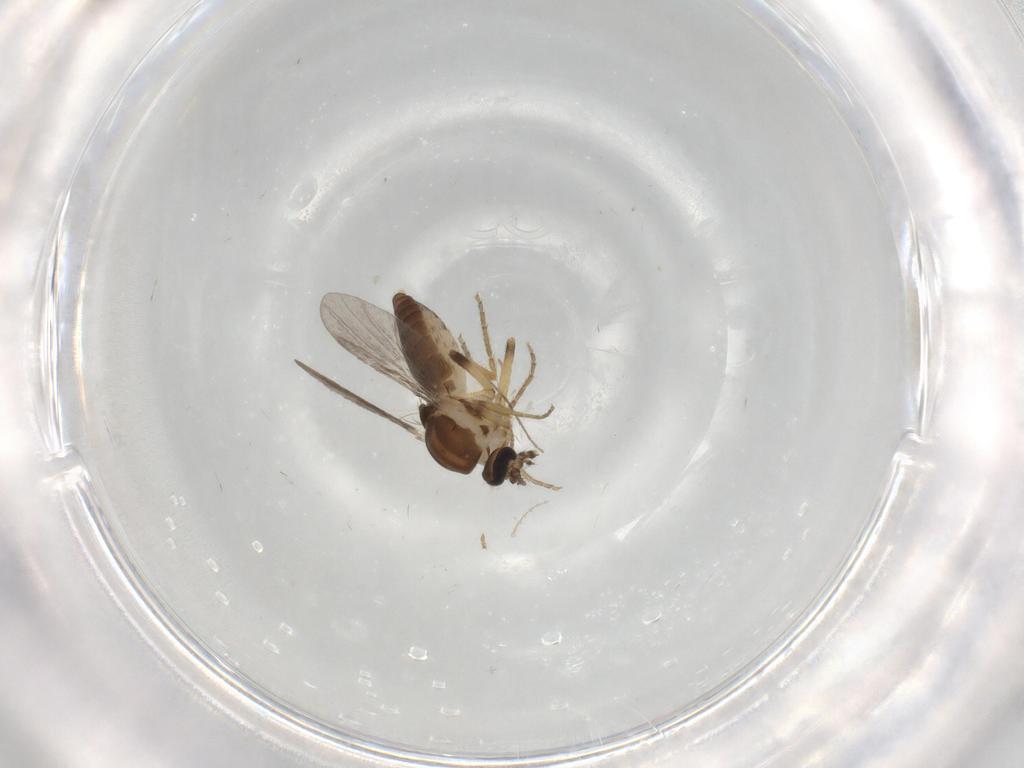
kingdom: Animalia
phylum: Arthropoda
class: Insecta
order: Diptera
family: Ceratopogonidae
